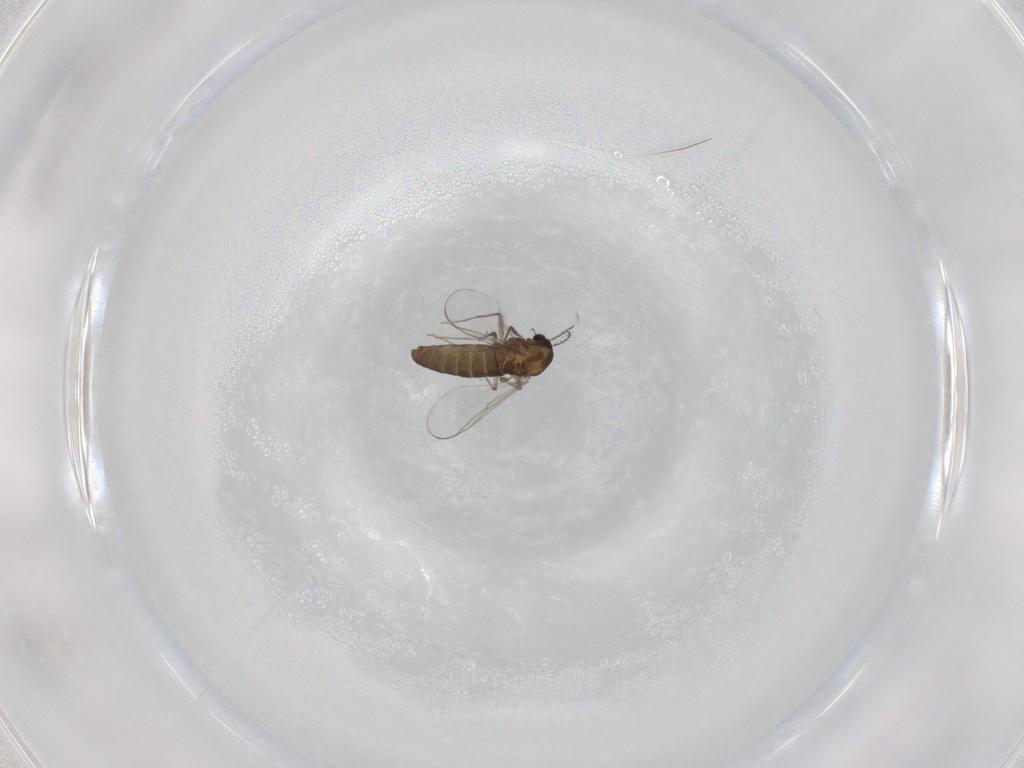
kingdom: Animalia
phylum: Arthropoda
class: Insecta
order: Diptera
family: Chironomidae
